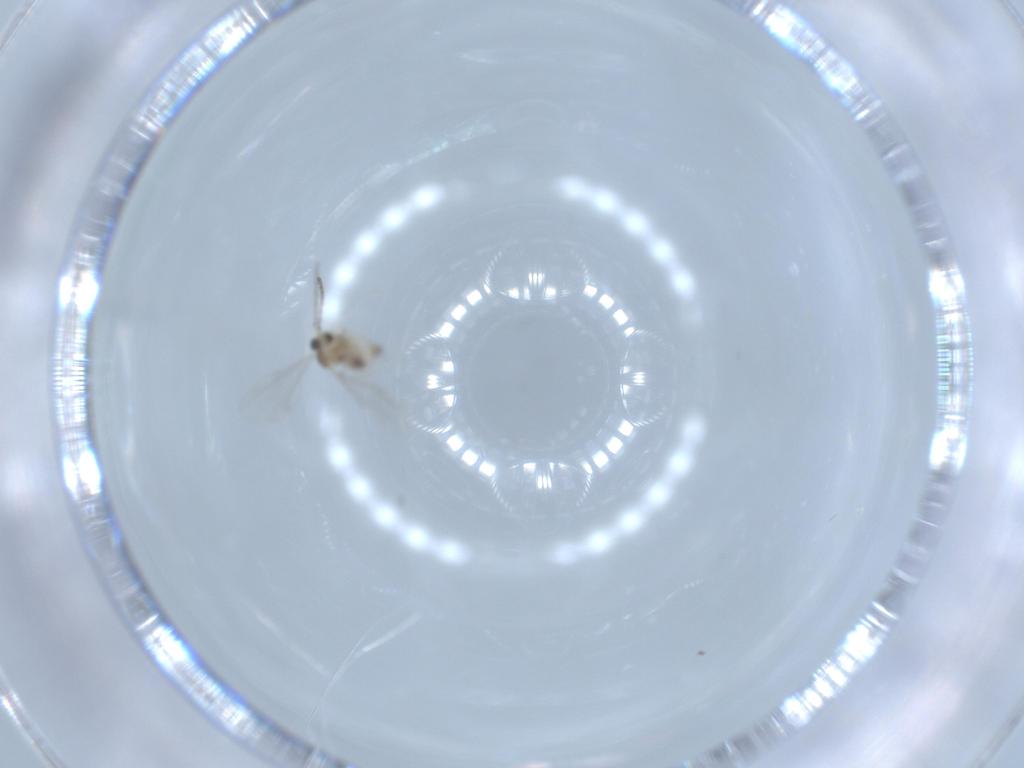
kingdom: Animalia
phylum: Arthropoda
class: Insecta
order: Diptera
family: Chironomidae
